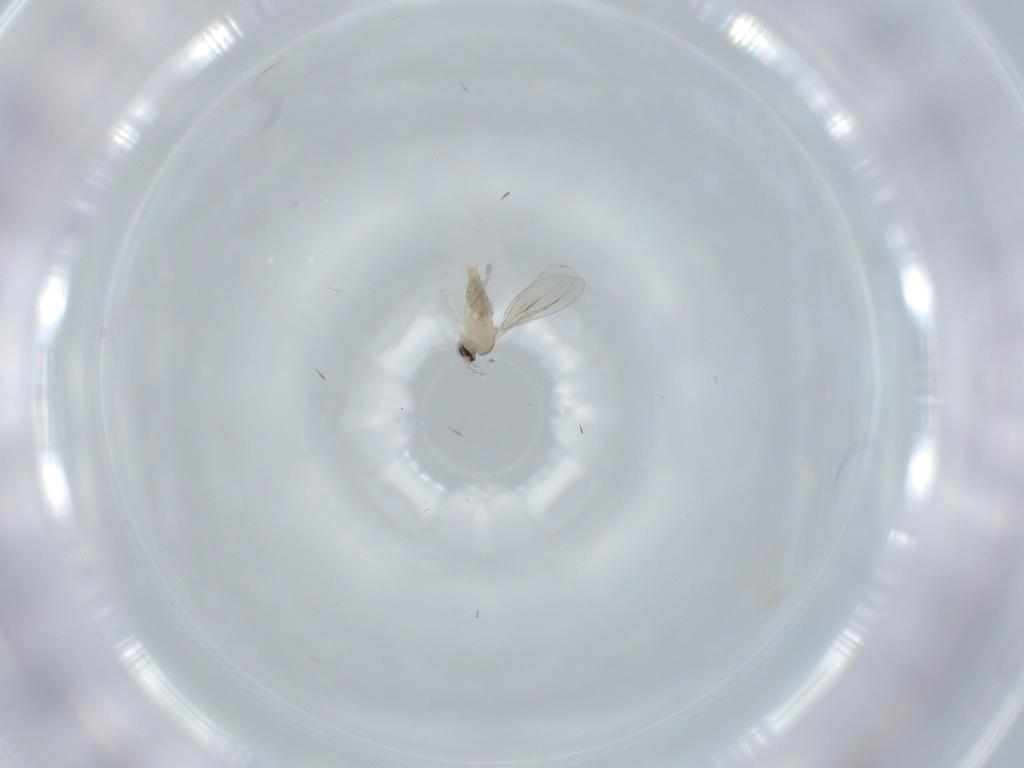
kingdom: Animalia
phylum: Arthropoda
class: Insecta
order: Diptera
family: Cecidomyiidae
